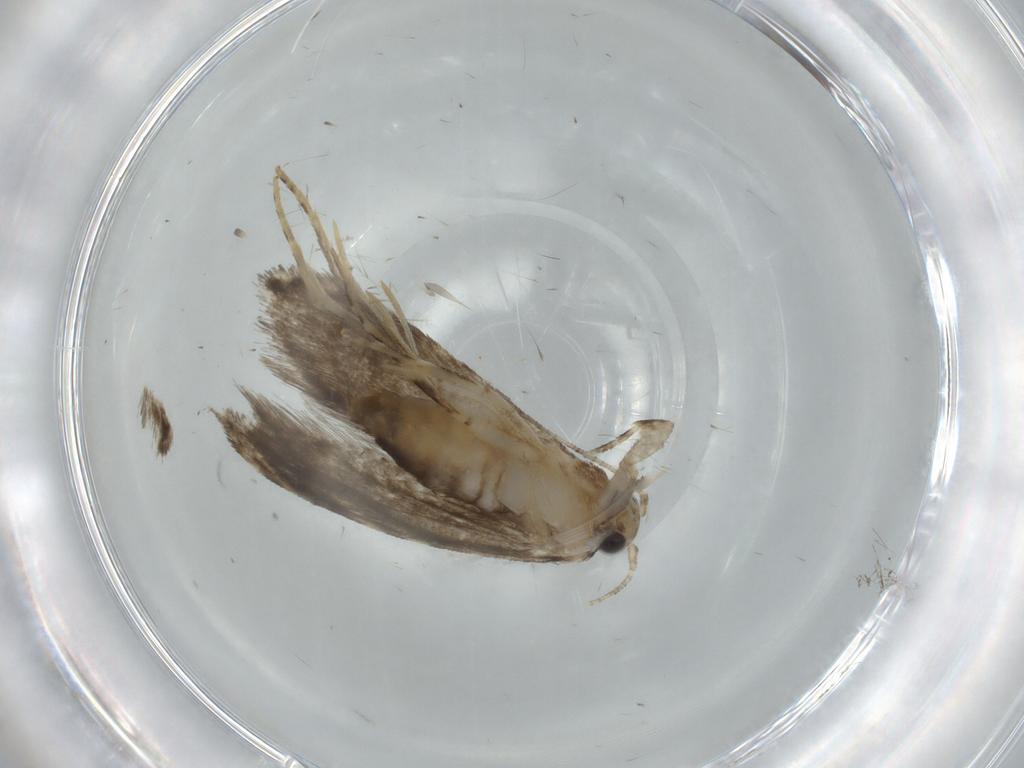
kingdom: Animalia
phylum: Arthropoda
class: Insecta
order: Lepidoptera
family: Tineidae
